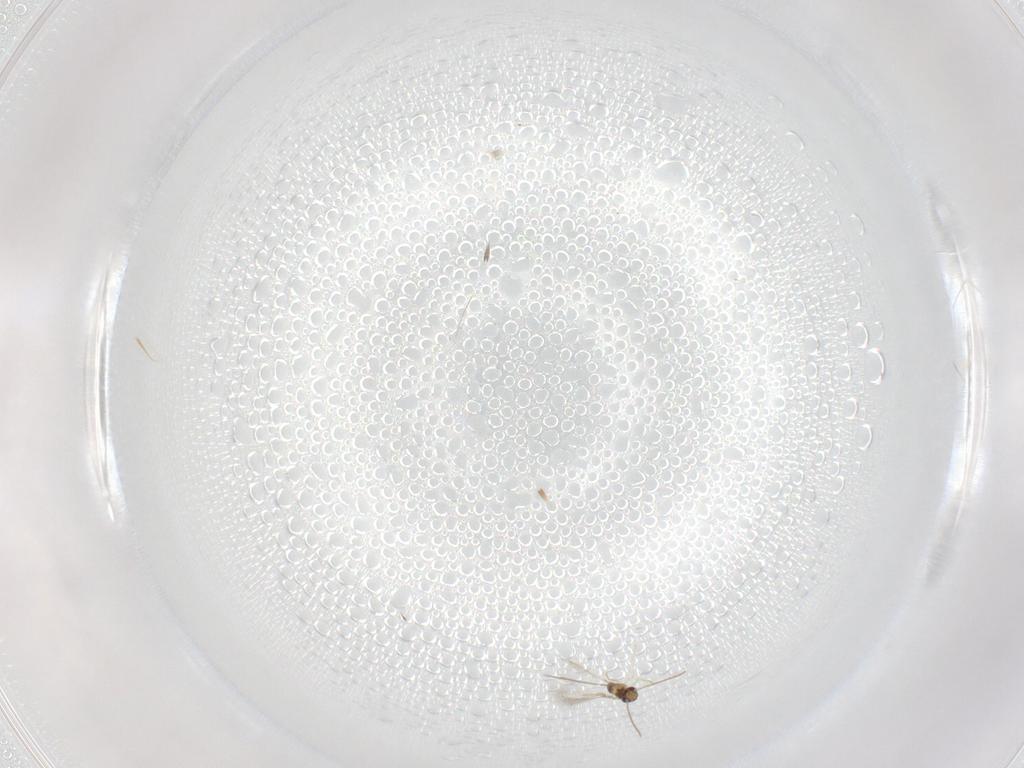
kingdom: Animalia
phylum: Arthropoda
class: Insecta
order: Hymenoptera
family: Mymaridae
